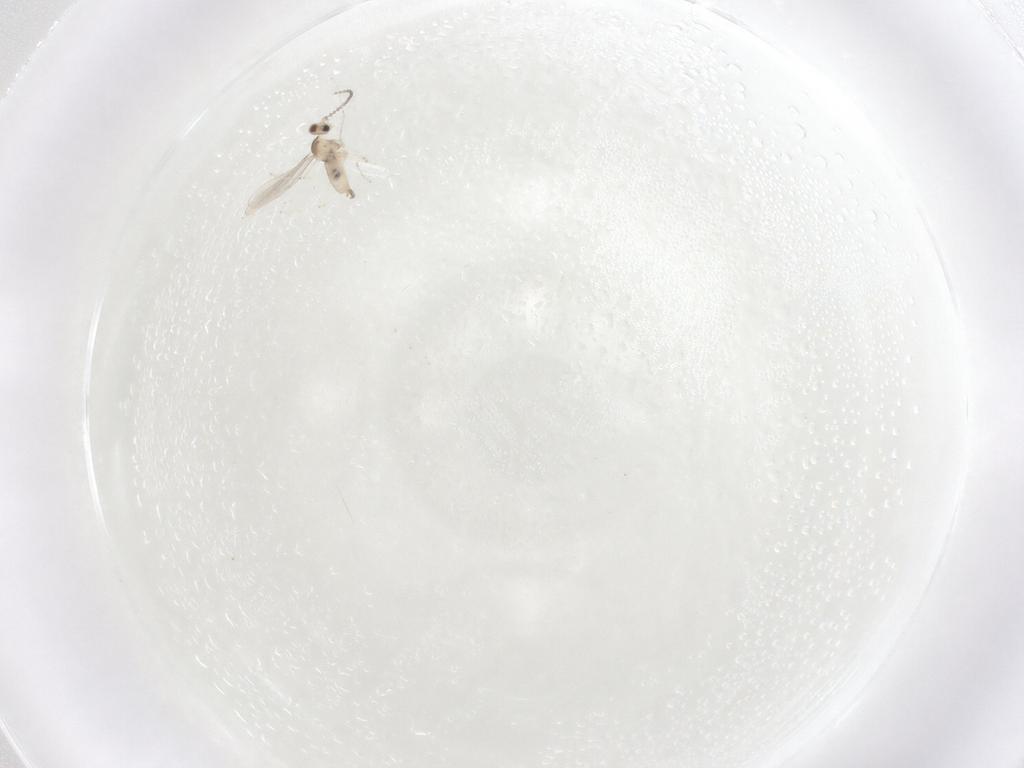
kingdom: Animalia
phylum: Arthropoda
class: Insecta
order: Diptera
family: Cecidomyiidae
